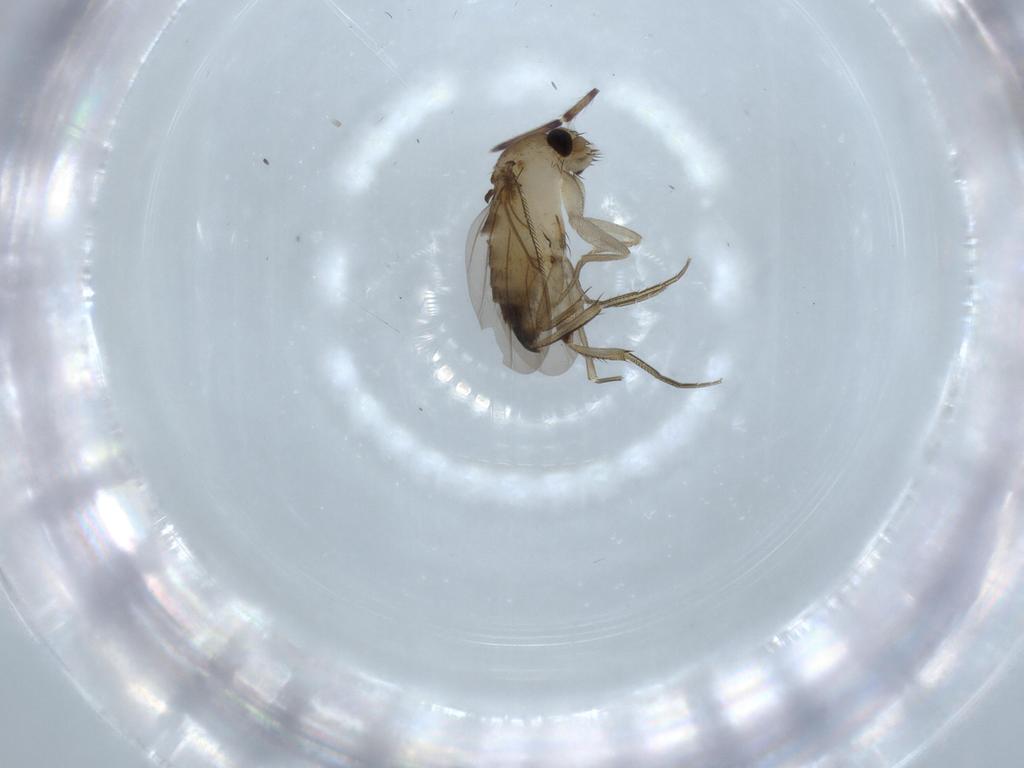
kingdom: Animalia
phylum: Arthropoda
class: Insecta
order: Diptera
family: Phoridae
